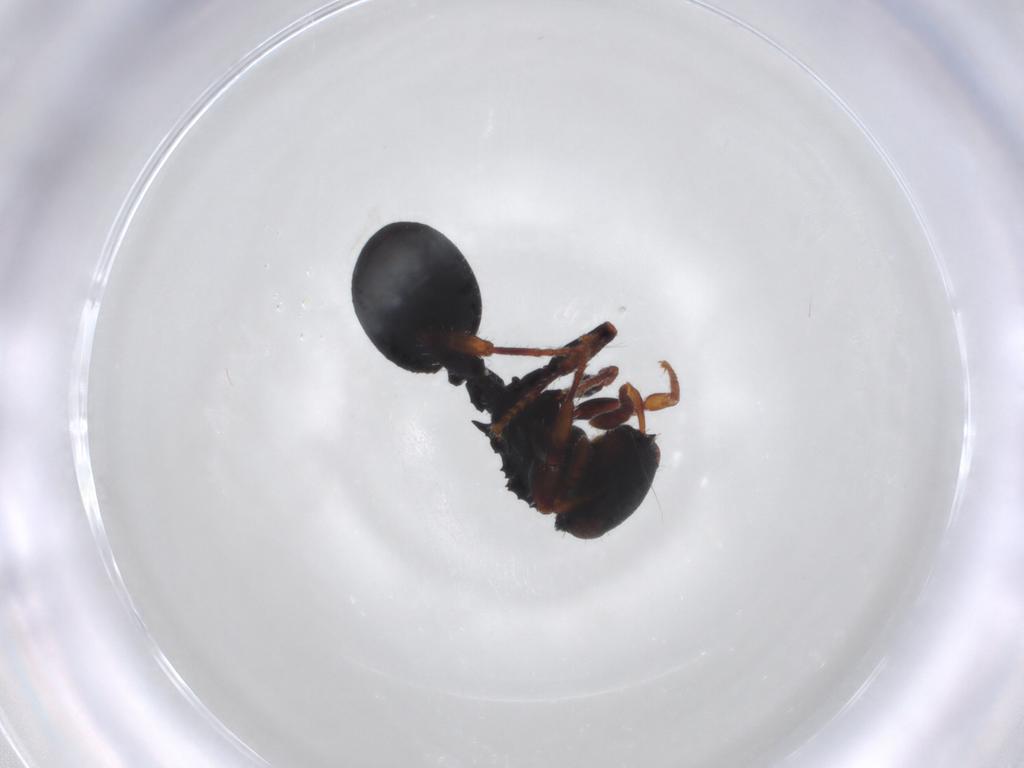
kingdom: Animalia
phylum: Arthropoda
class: Insecta
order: Hymenoptera
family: Formicidae
